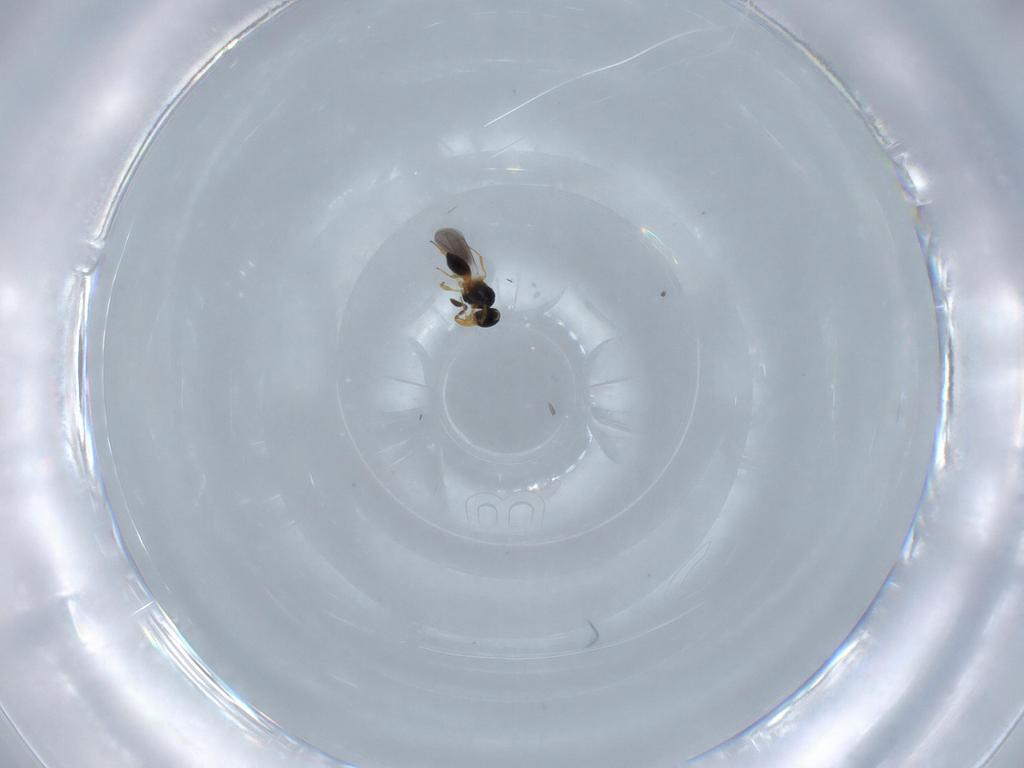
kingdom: Animalia
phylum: Arthropoda
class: Insecta
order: Hymenoptera
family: Platygastridae
